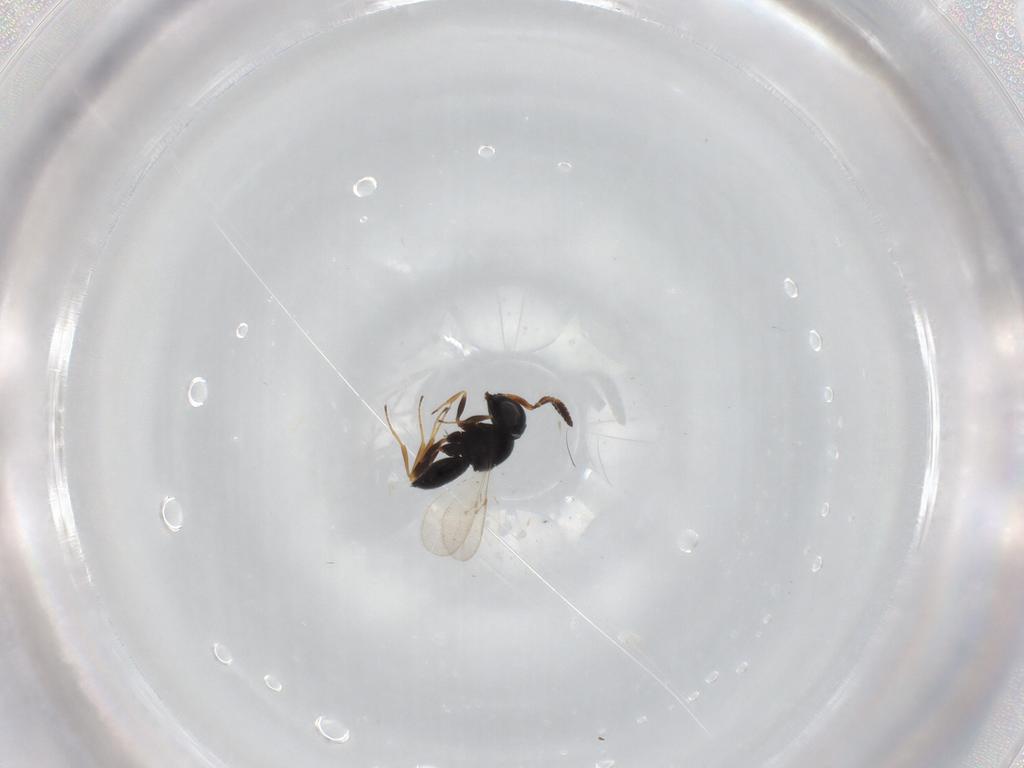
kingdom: Animalia
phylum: Arthropoda
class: Insecta
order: Coleoptera
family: Curculionidae
